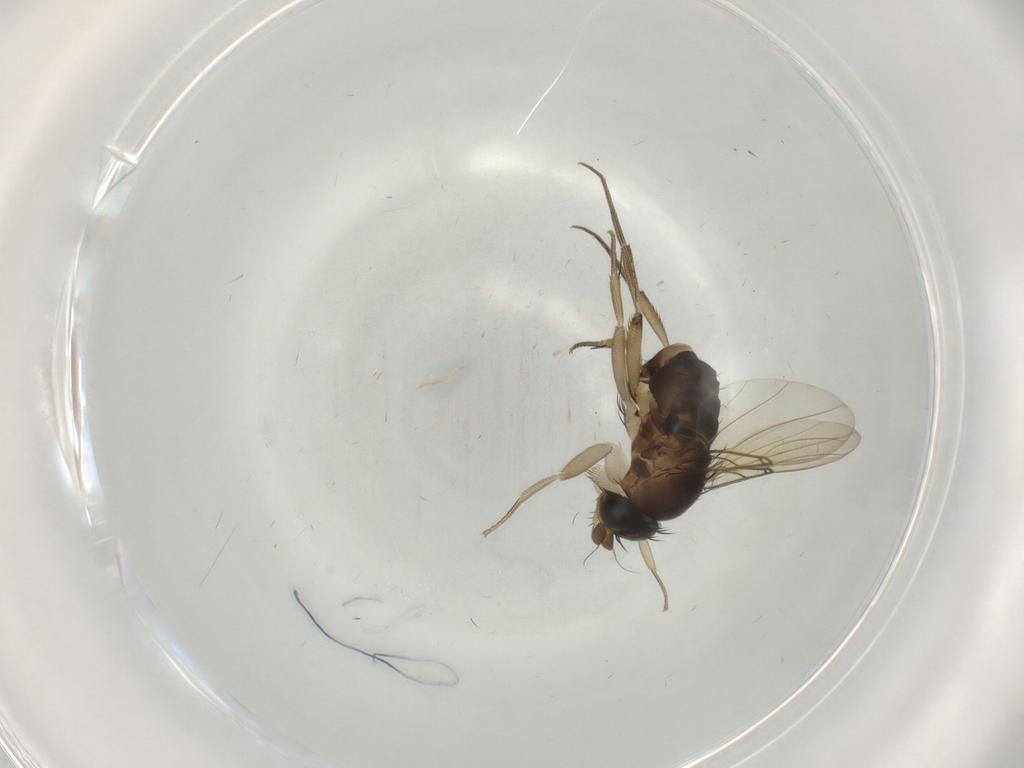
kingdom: Animalia
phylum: Arthropoda
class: Insecta
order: Diptera
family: Phoridae
